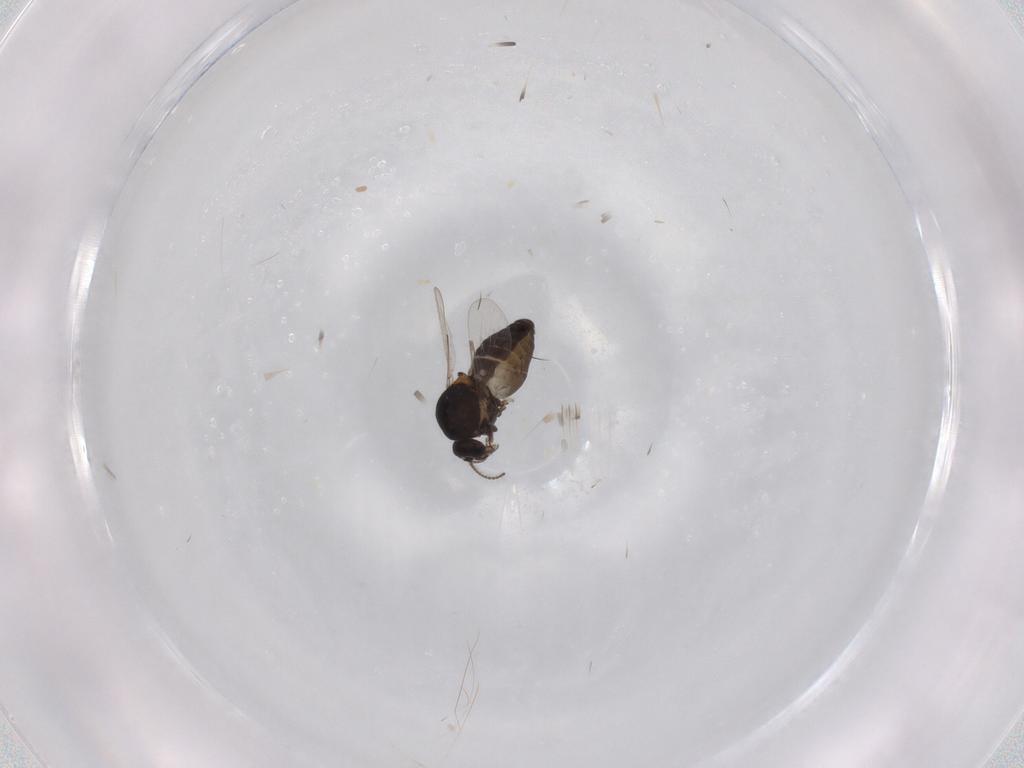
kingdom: Animalia
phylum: Arthropoda
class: Insecta
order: Diptera
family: Ceratopogonidae
